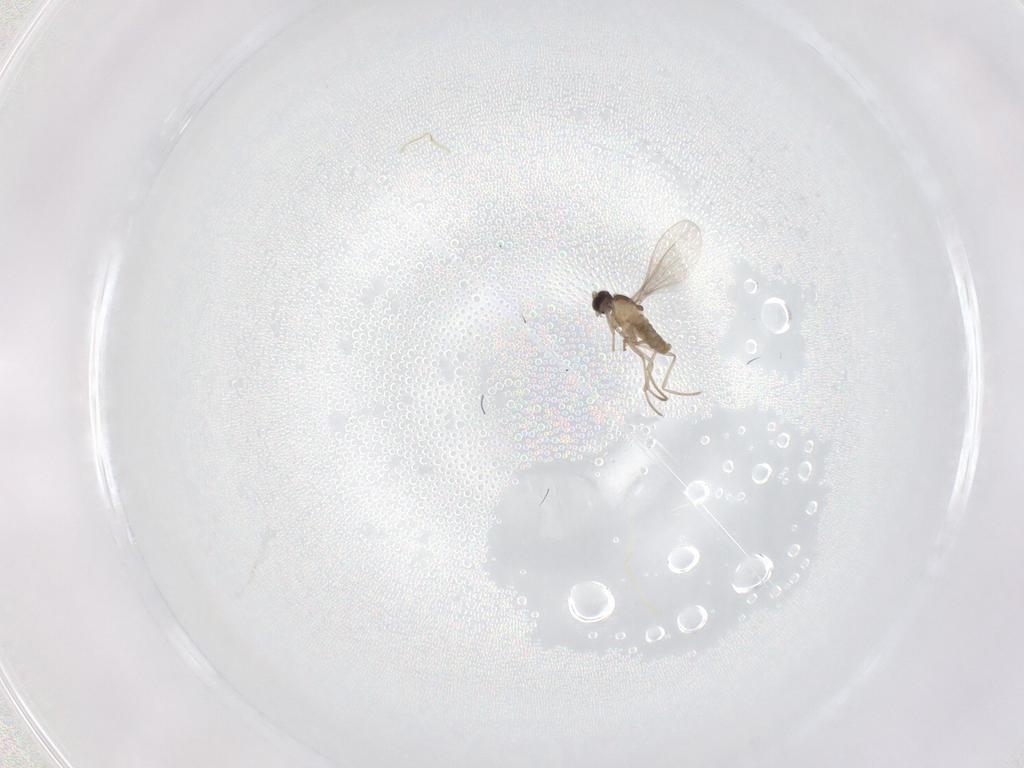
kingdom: Animalia
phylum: Arthropoda
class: Insecta
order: Diptera
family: Cecidomyiidae
